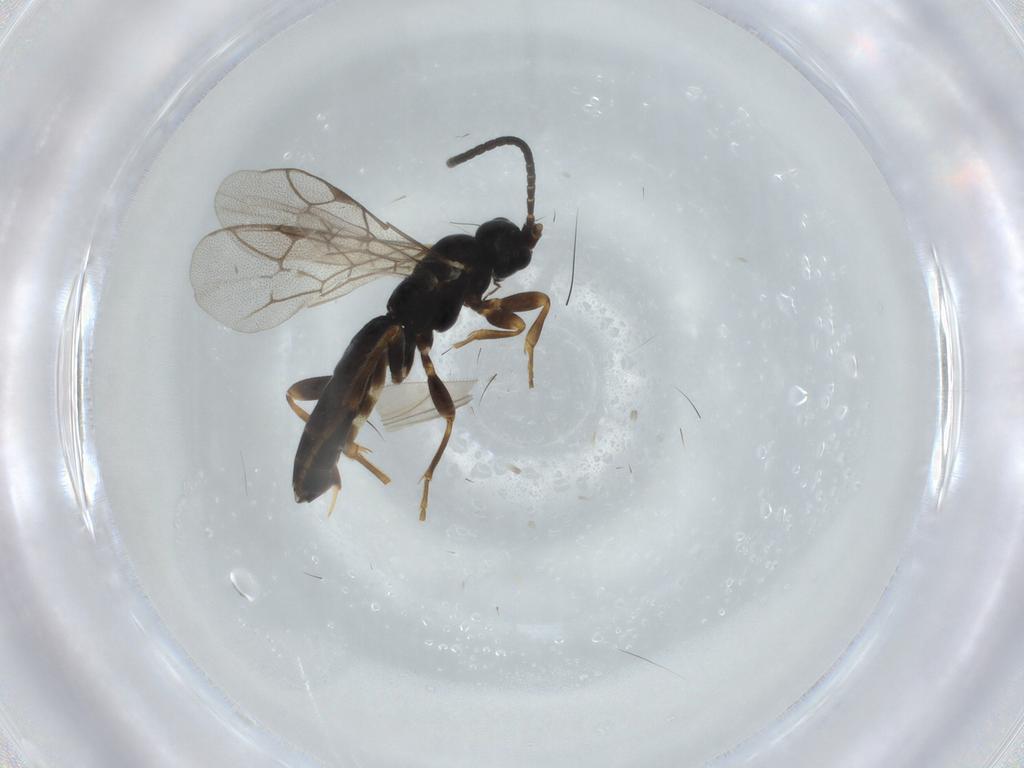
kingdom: Animalia
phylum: Arthropoda
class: Insecta
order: Hymenoptera
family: Ichneumonidae
